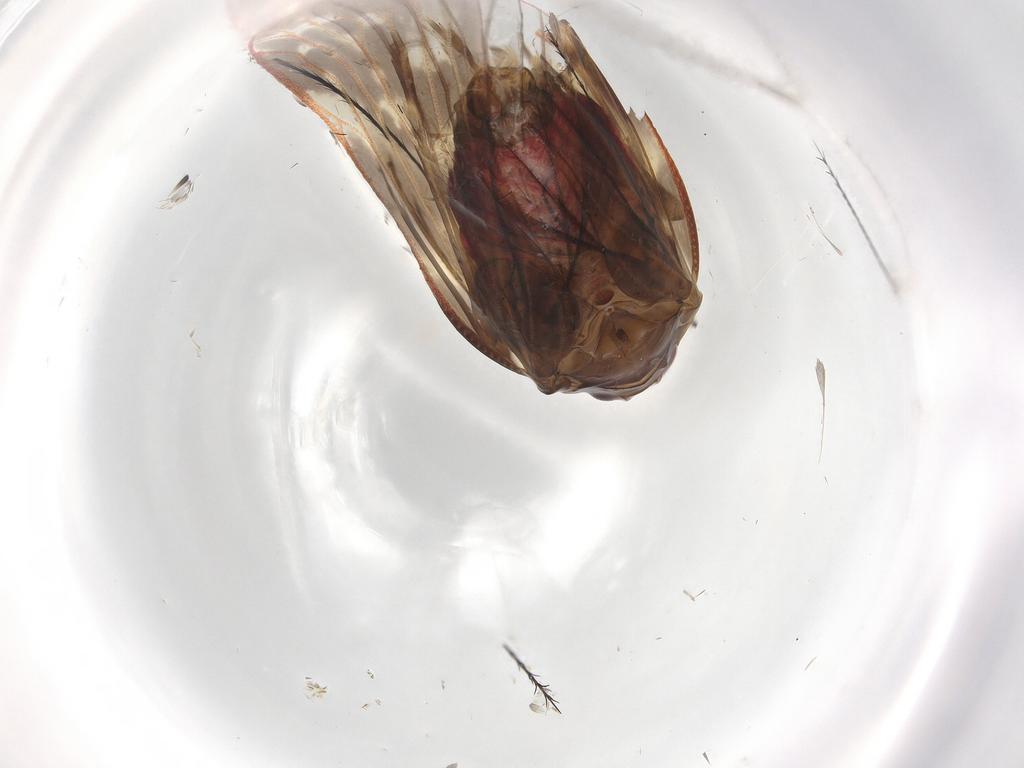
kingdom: Animalia
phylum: Arthropoda
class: Insecta
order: Hemiptera
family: Achilidae
